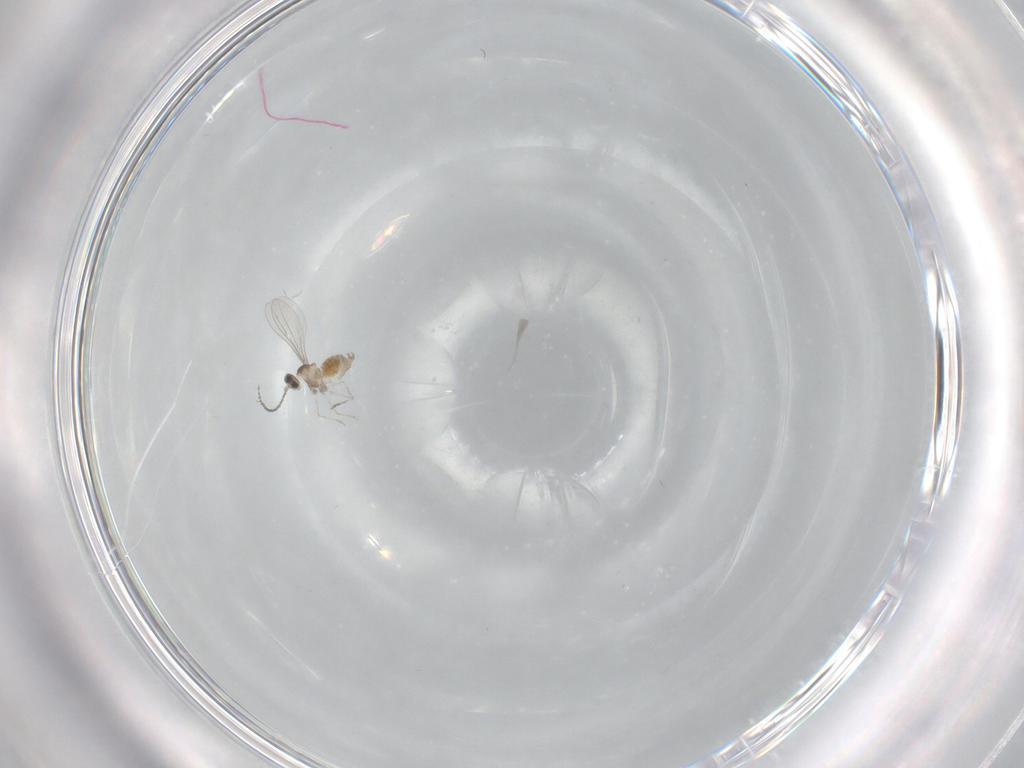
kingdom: Animalia
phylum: Arthropoda
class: Insecta
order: Diptera
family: Cecidomyiidae
